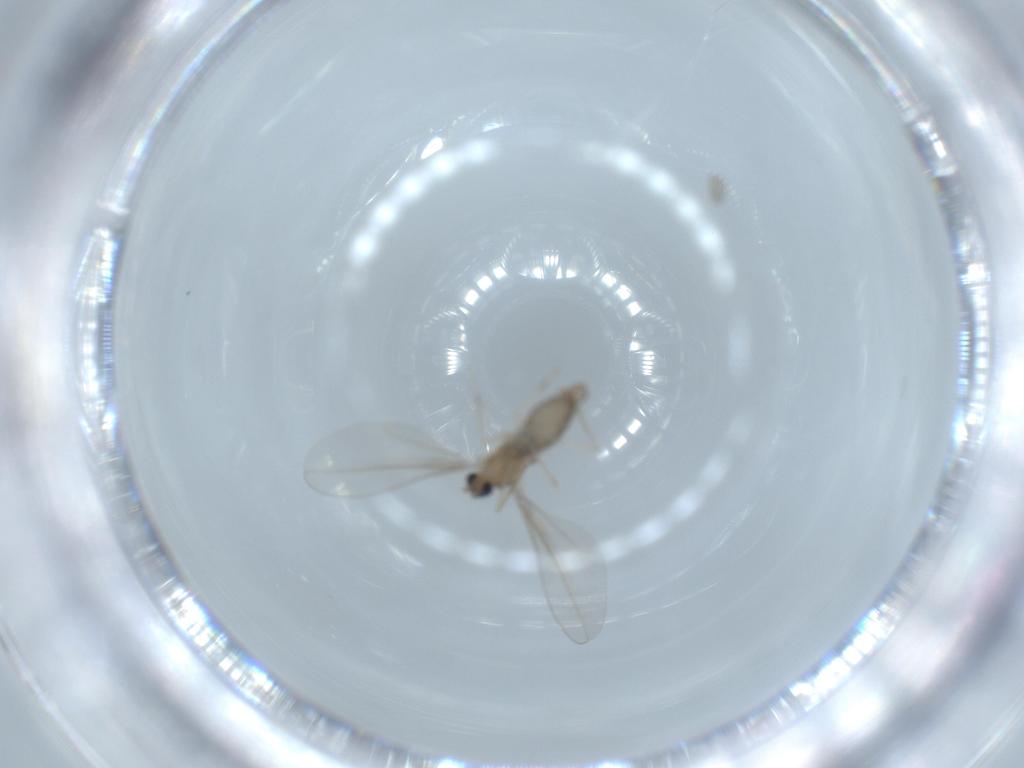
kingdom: Animalia
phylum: Arthropoda
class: Insecta
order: Diptera
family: Cecidomyiidae
